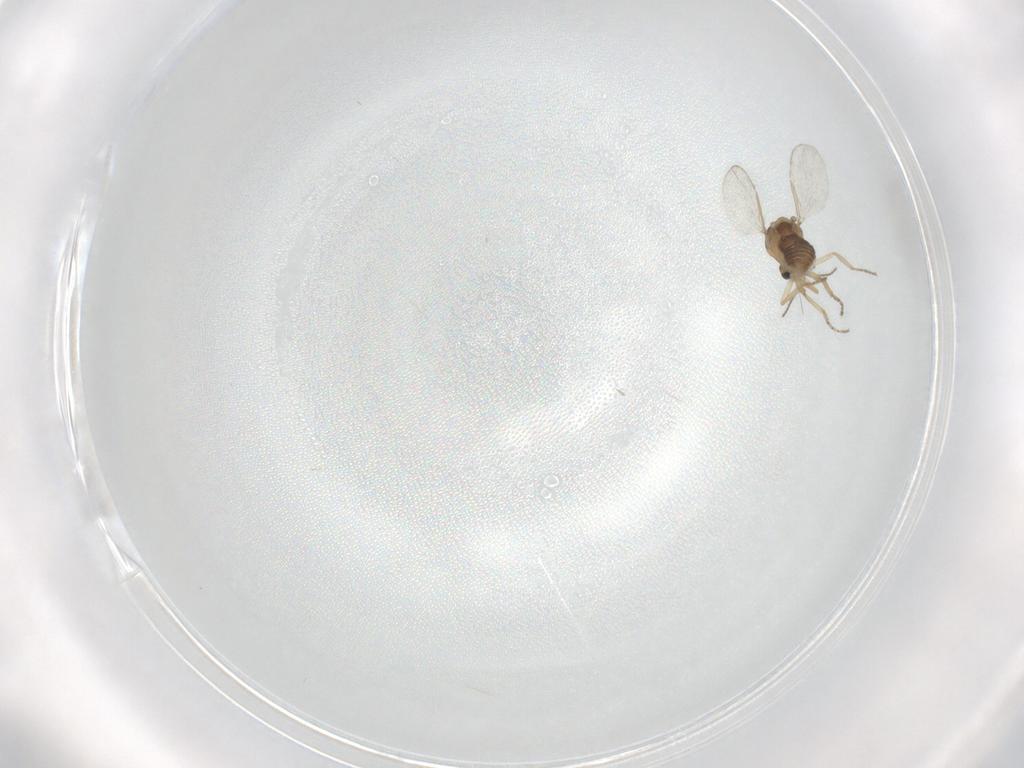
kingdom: Animalia
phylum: Arthropoda
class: Insecta
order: Diptera
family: Ceratopogonidae
